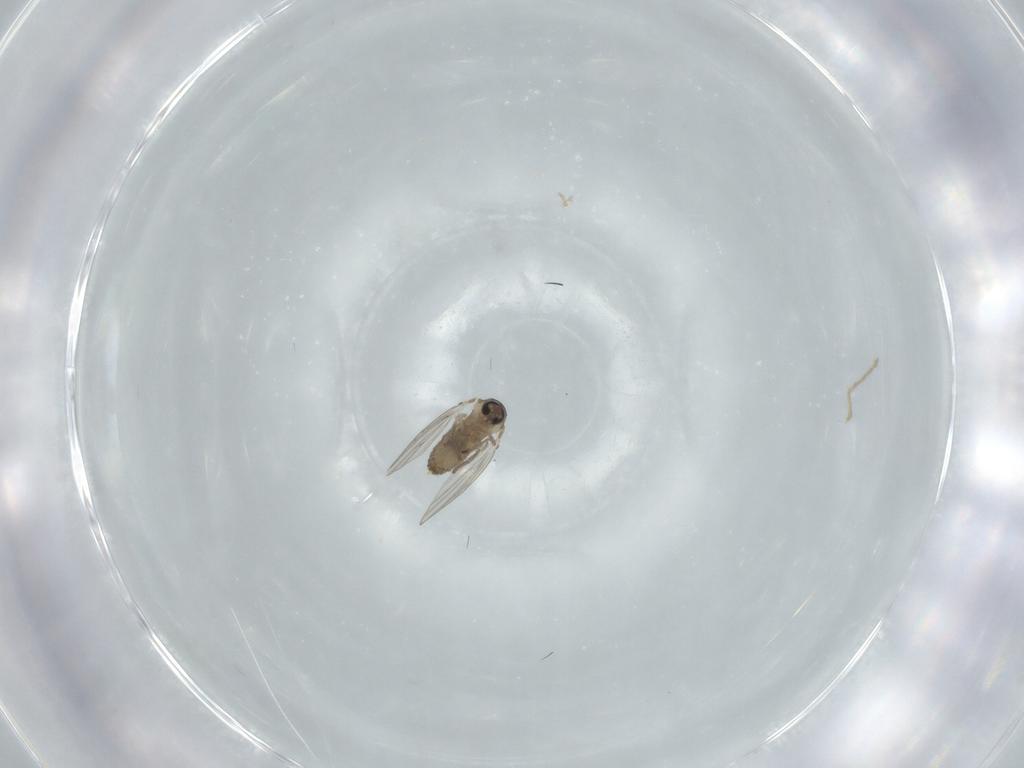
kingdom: Animalia
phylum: Arthropoda
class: Insecta
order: Diptera
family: Psychodidae
